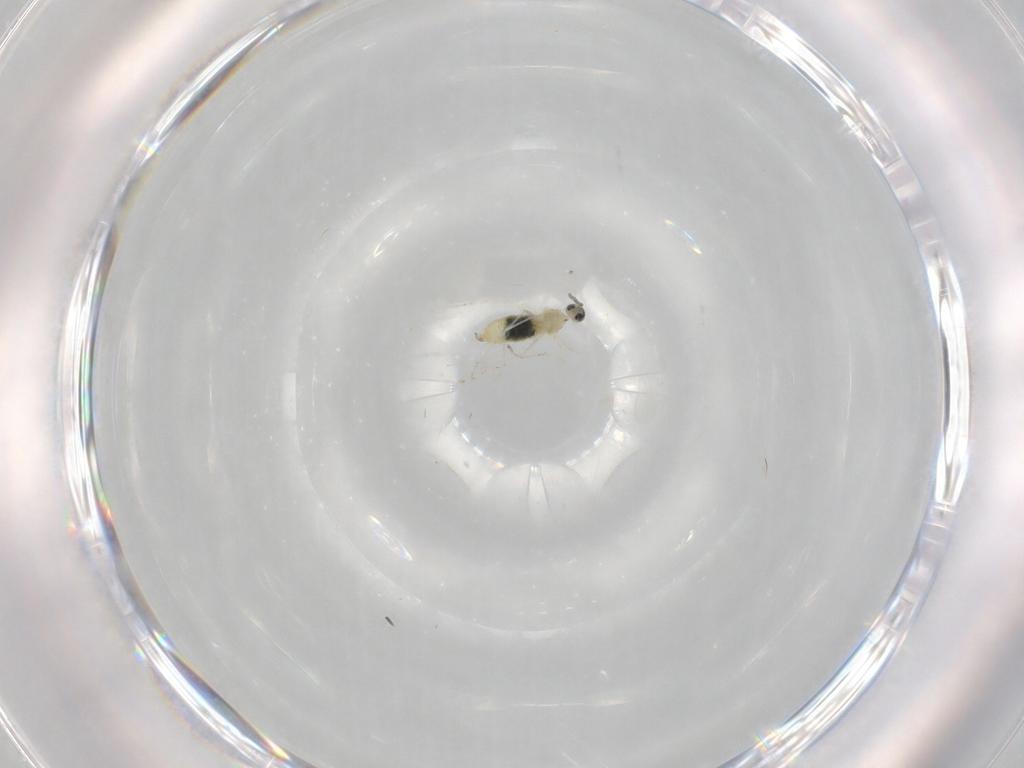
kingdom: Animalia
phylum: Arthropoda
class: Insecta
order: Diptera
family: Cecidomyiidae
